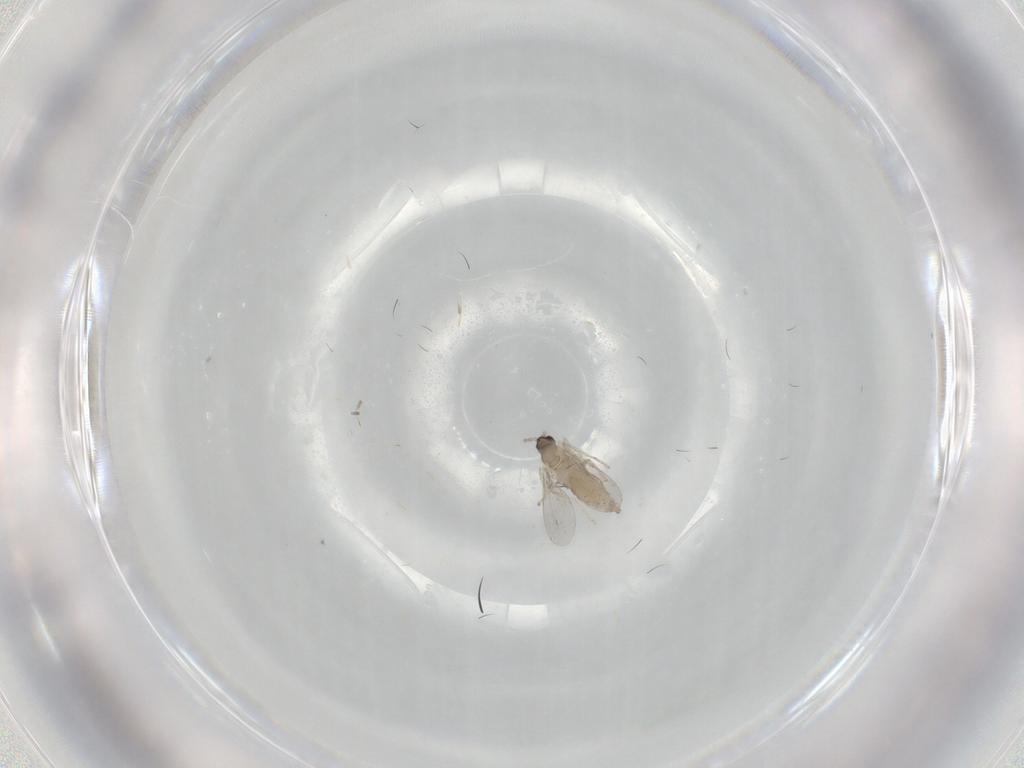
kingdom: Animalia
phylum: Arthropoda
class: Insecta
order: Diptera
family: Cecidomyiidae
